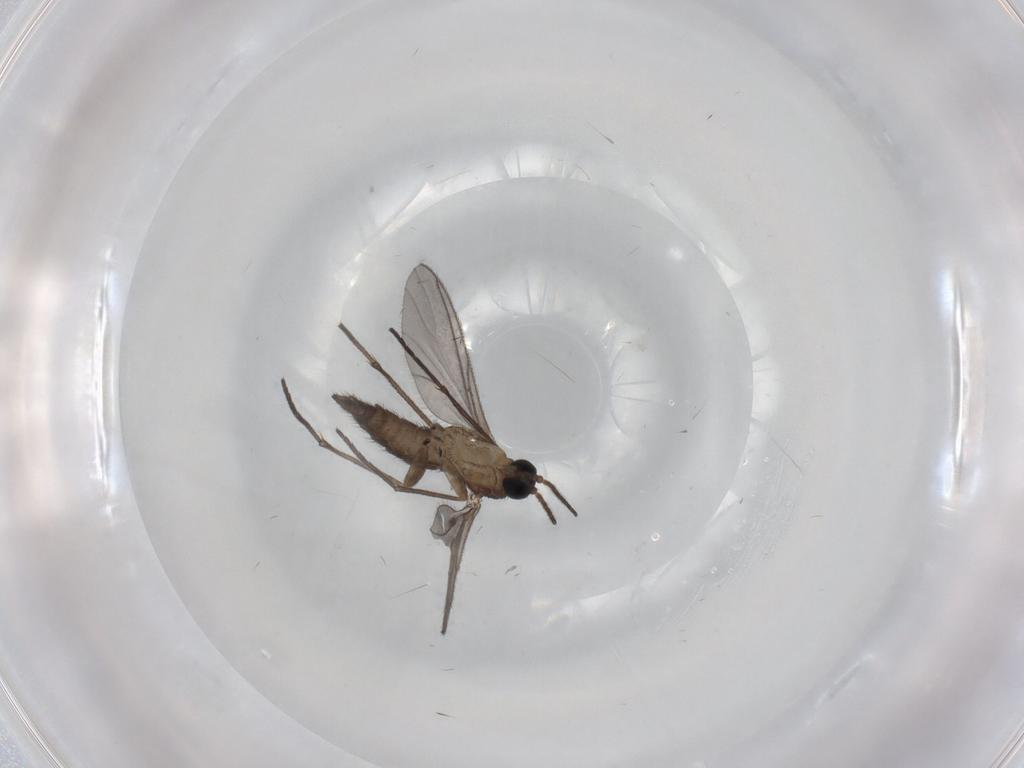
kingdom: Animalia
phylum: Arthropoda
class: Insecta
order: Diptera
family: Sciaridae
